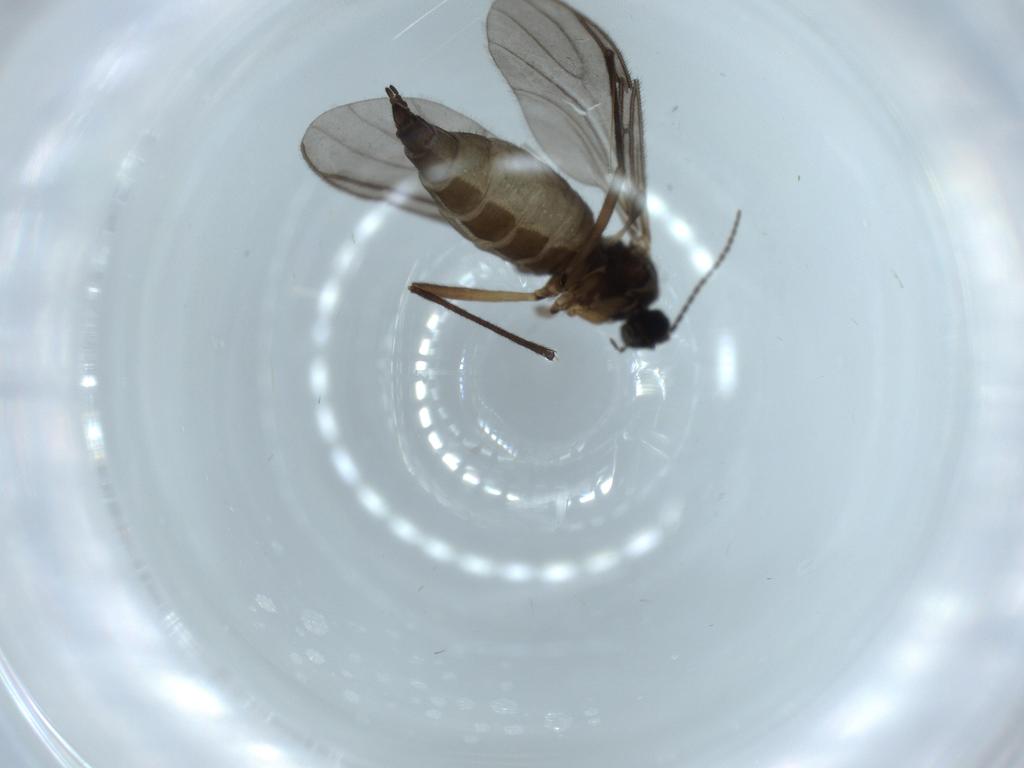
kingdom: Animalia
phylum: Arthropoda
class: Insecta
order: Diptera
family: Sciaridae
